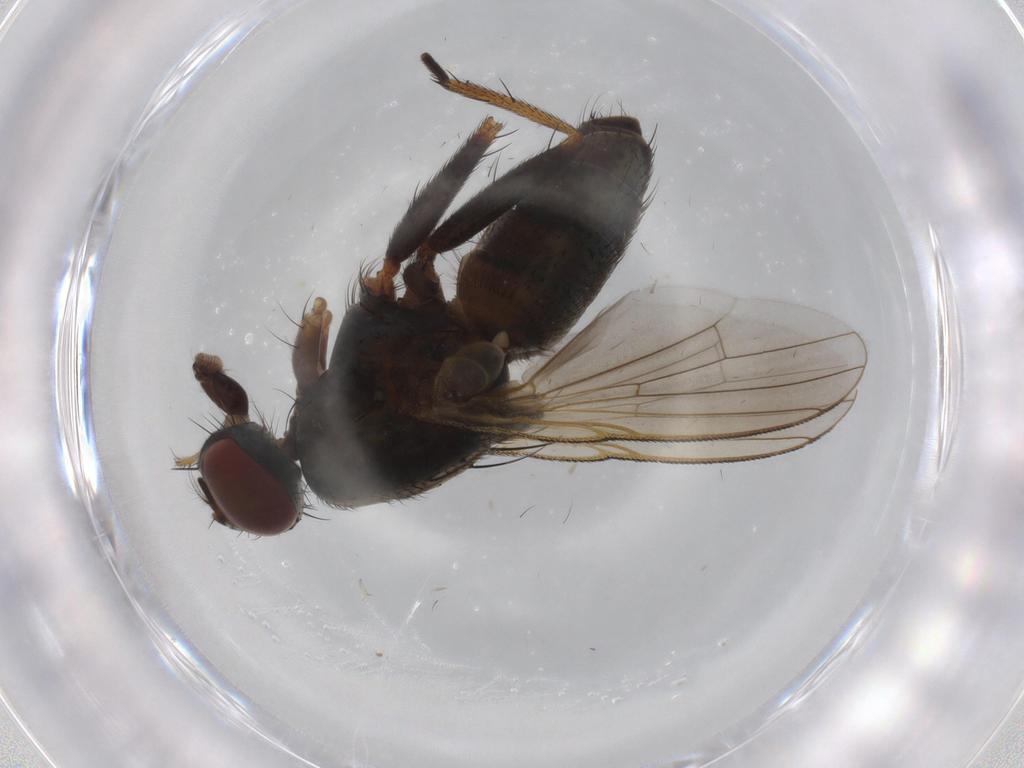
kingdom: Animalia
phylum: Arthropoda
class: Insecta
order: Diptera
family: Muscidae
